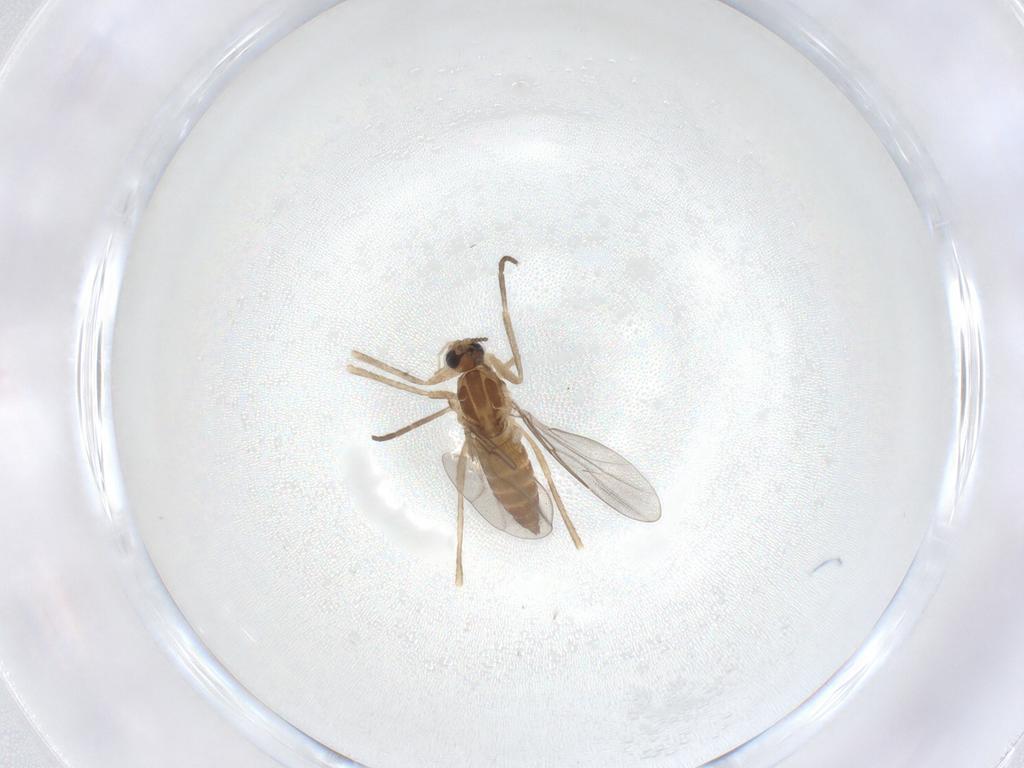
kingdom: Animalia
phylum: Arthropoda
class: Insecta
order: Diptera
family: Cecidomyiidae
